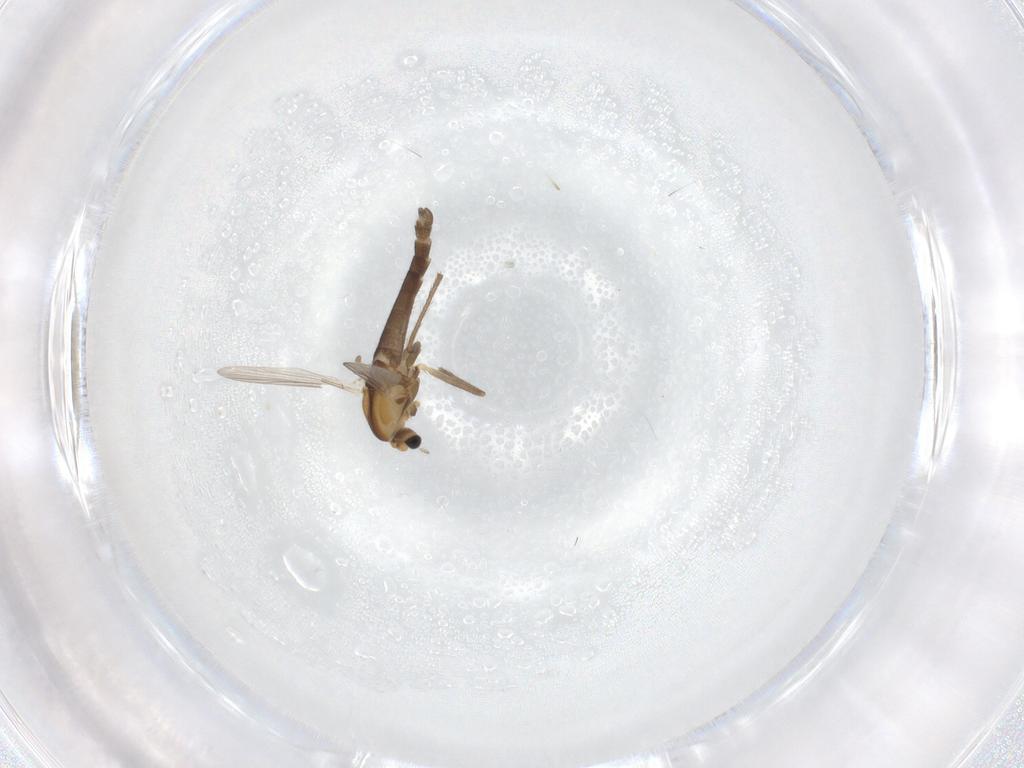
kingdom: Animalia
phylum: Arthropoda
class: Insecta
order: Diptera
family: Chironomidae
